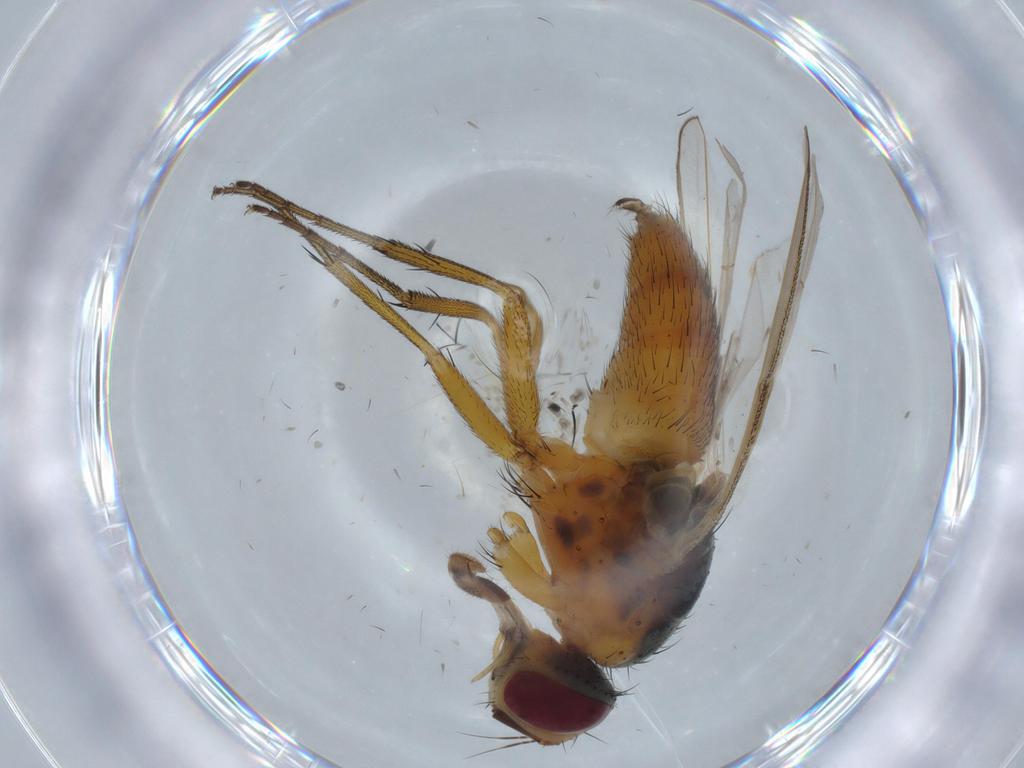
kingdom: Animalia
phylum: Arthropoda
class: Insecta
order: Diptera
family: Muscidae
